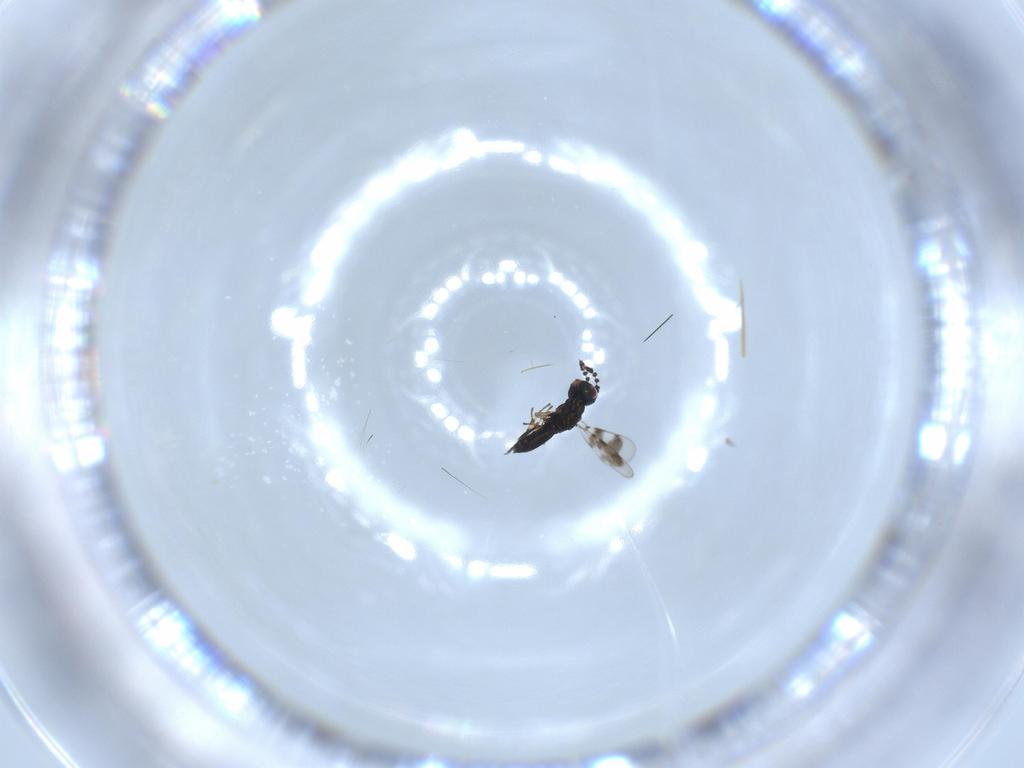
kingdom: Animalia
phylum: Arthropoda
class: Insecta
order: Hymenoptera
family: Eulophidae
